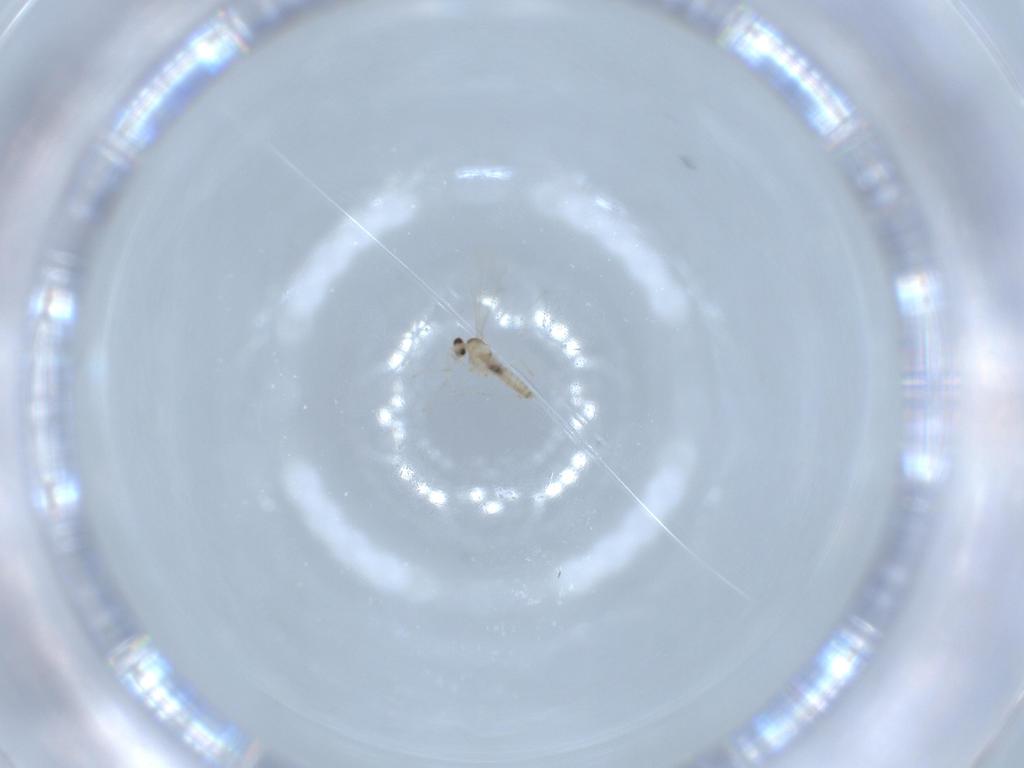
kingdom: Animalia
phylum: Arthropoda
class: Insecta
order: Diptera
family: Cecidomyiidae
